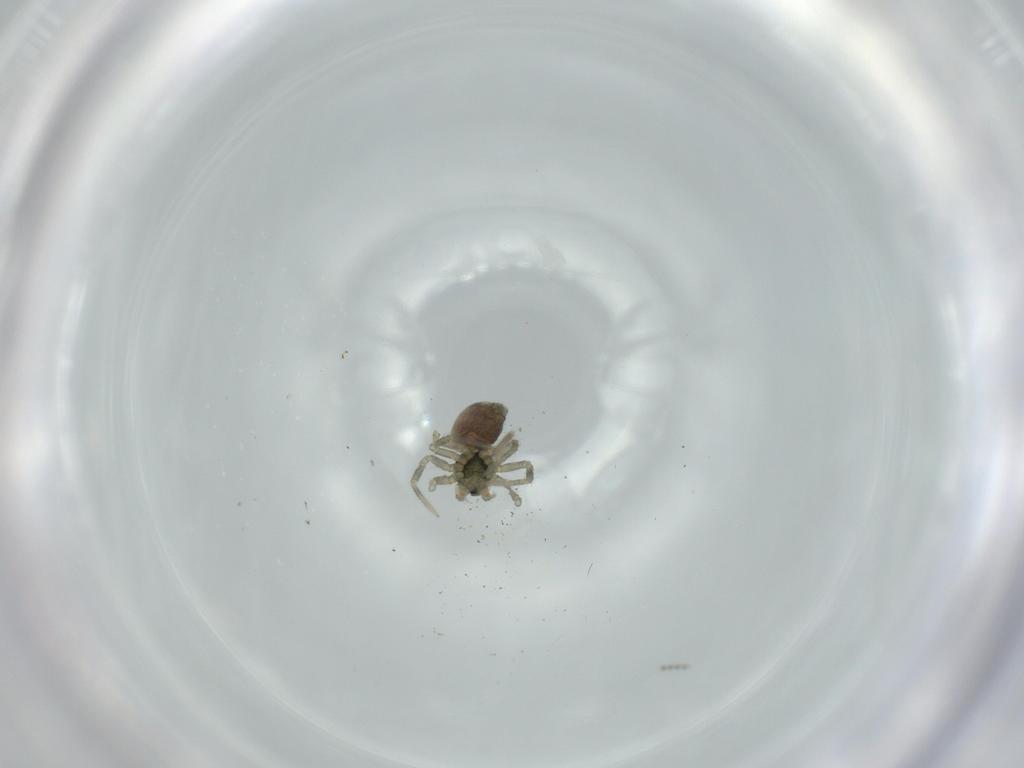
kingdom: Animalia
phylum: Arthropoda
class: Arachnida
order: Araneae
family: Linyphiidae
